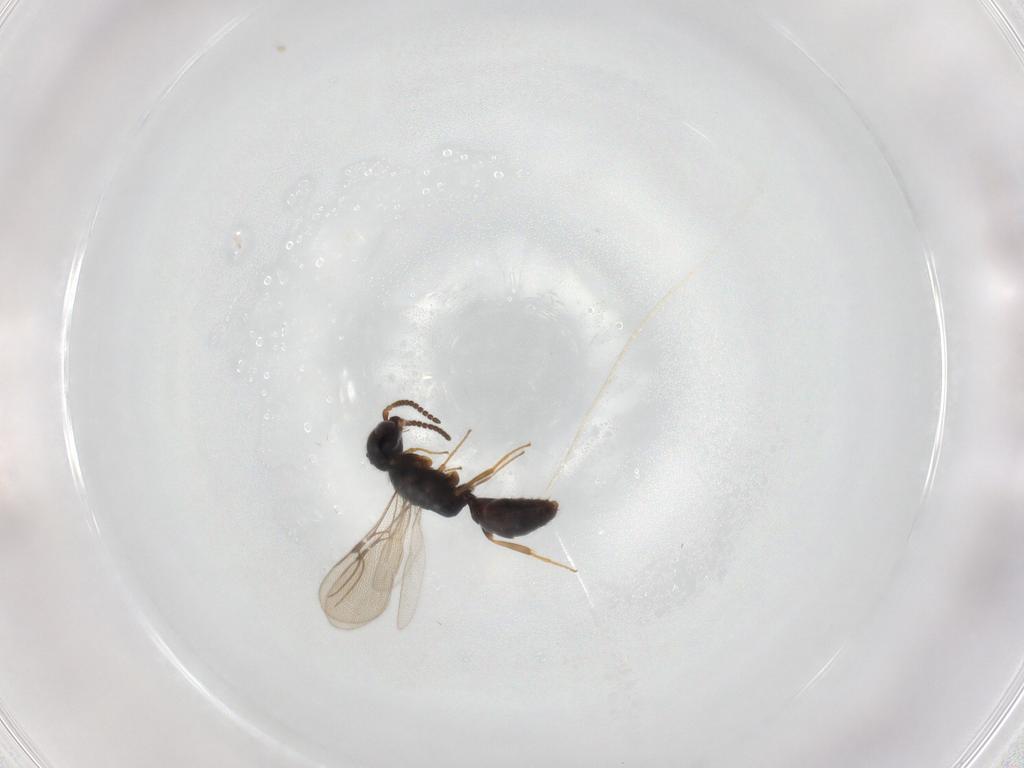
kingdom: Animalia
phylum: Arthropoda
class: Insecta
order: Hymenoptera
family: Bethylidae
